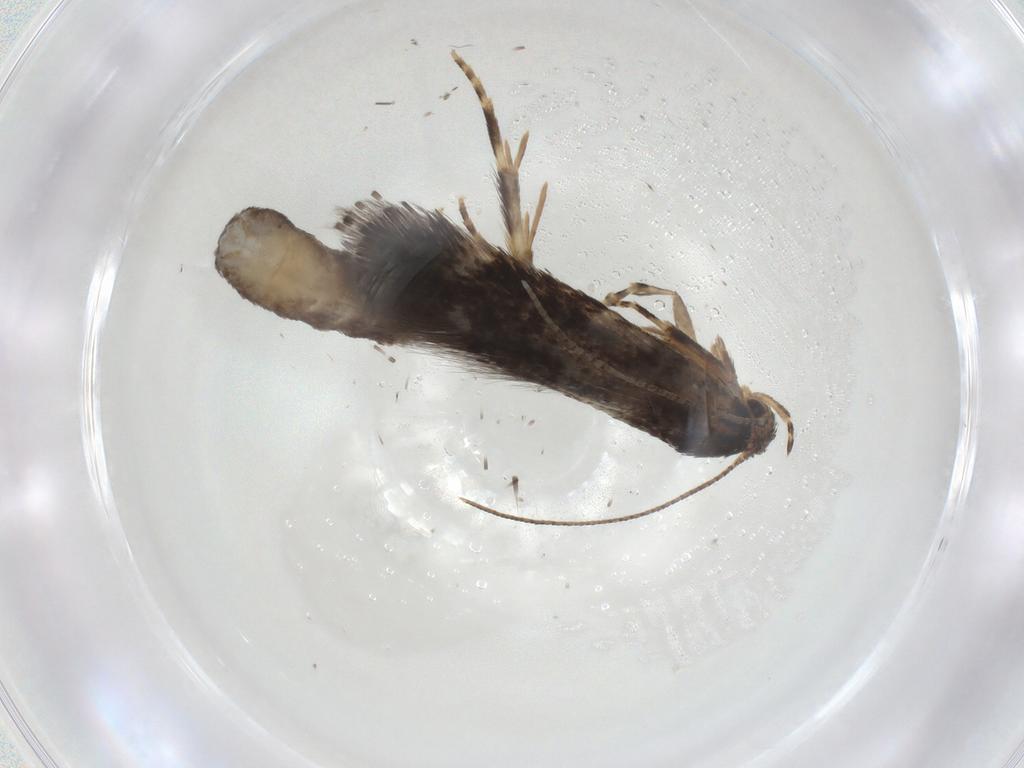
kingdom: Animalia
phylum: Arthropoda
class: Insecta
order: Lepidoptera
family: Elachistidae
